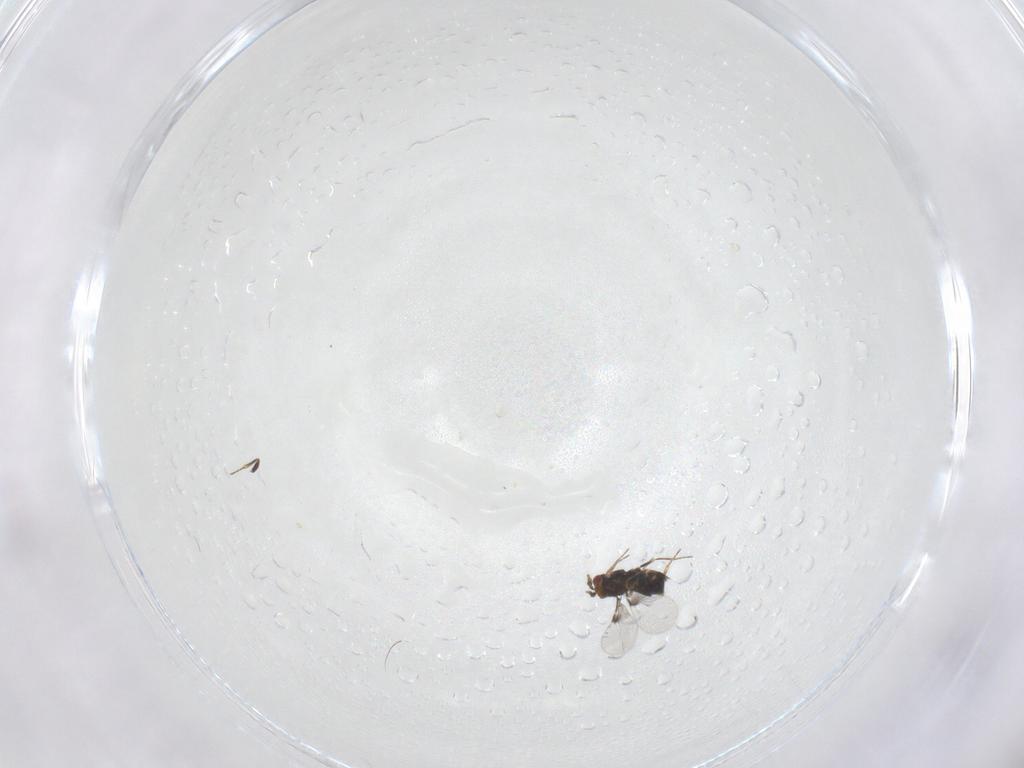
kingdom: Animalia
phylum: Arthropoda
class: Insecta
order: Hymenoptera
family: Trichogrammatidae
